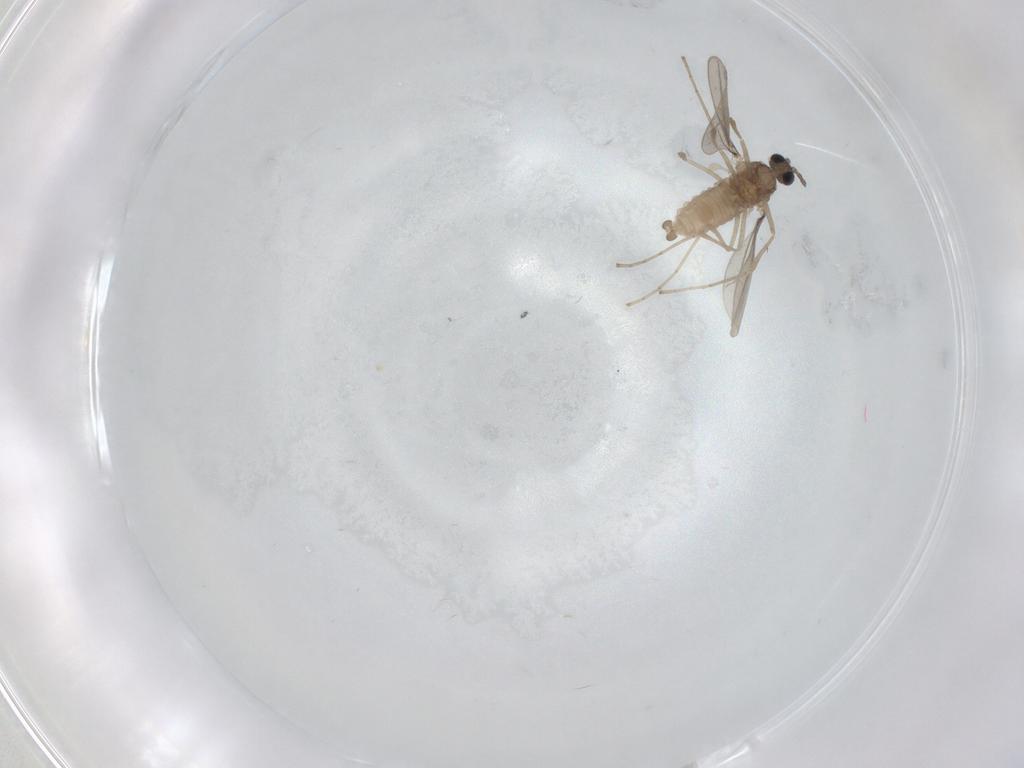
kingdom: Animalia
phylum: Arthropoda
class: Insecta
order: Diptera
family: Cecidomyiidae
